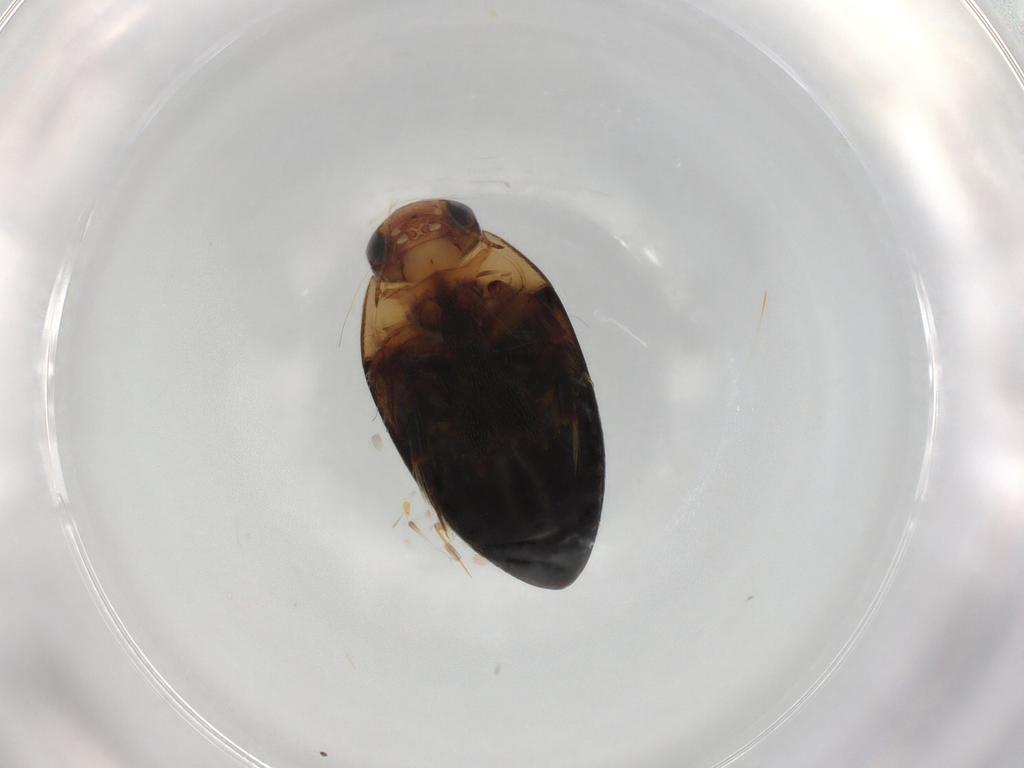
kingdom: Animalia
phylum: Arthropoda
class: Insecta
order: Coleoptera
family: Noteridae
